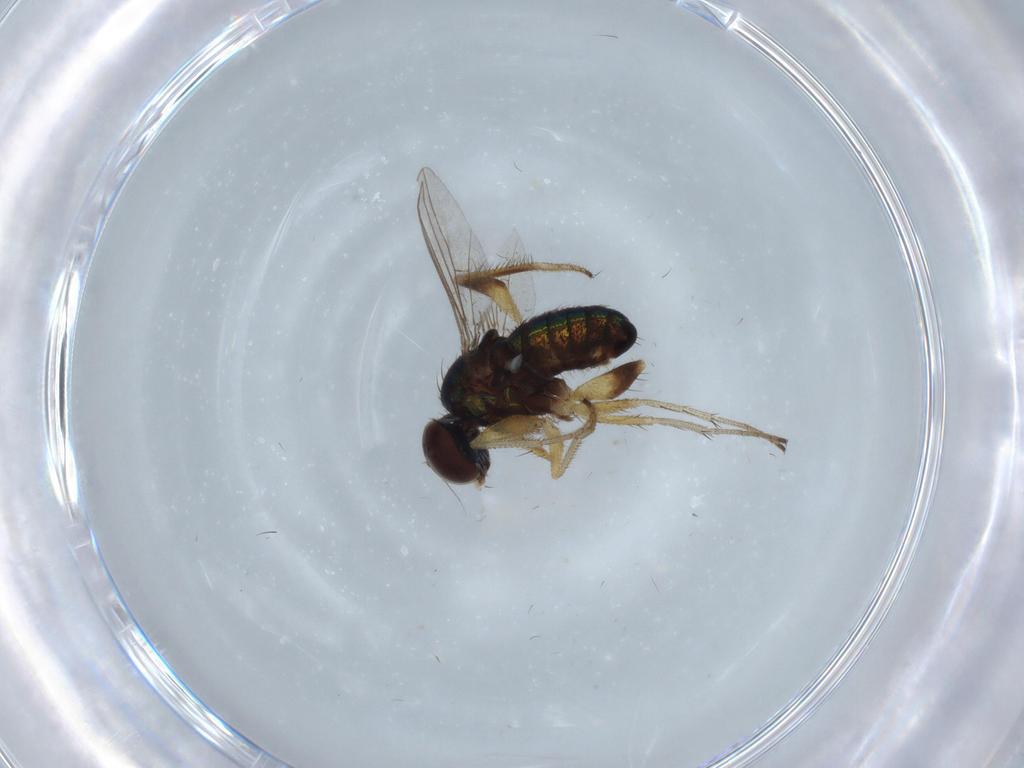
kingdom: Animalia
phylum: Arthropoda
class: Insecta
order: Diptera
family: Dolichopodidae
